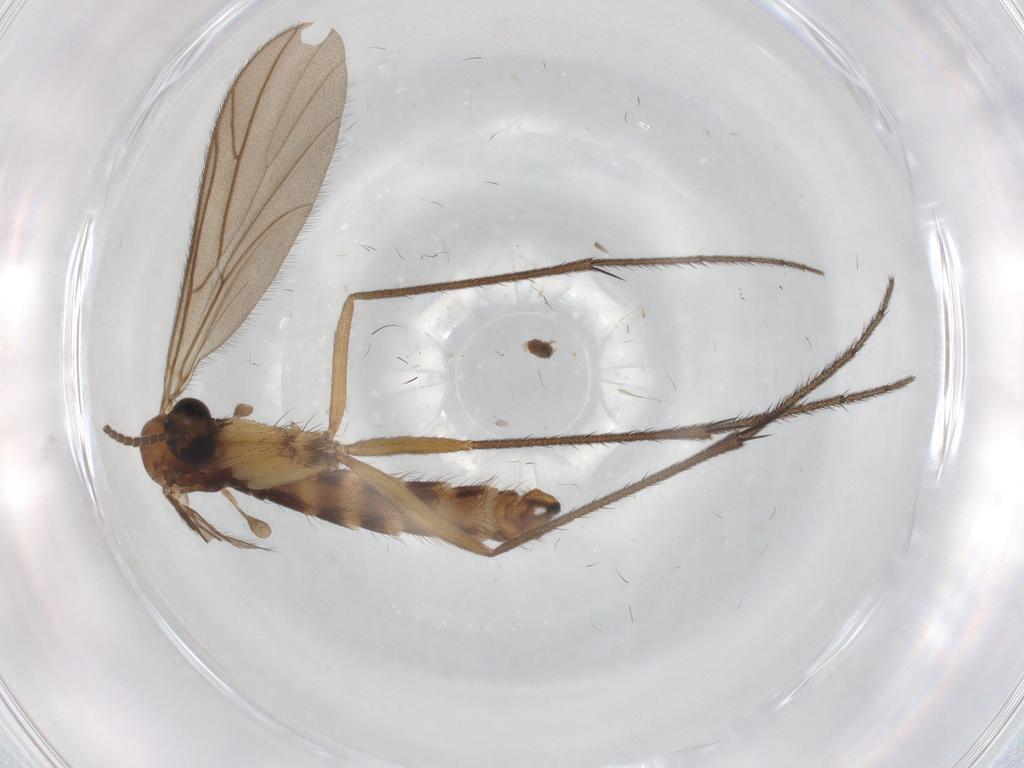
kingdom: Animalia
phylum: Arthropoda
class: Insecta
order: Diptera
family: Ditomyiidae
